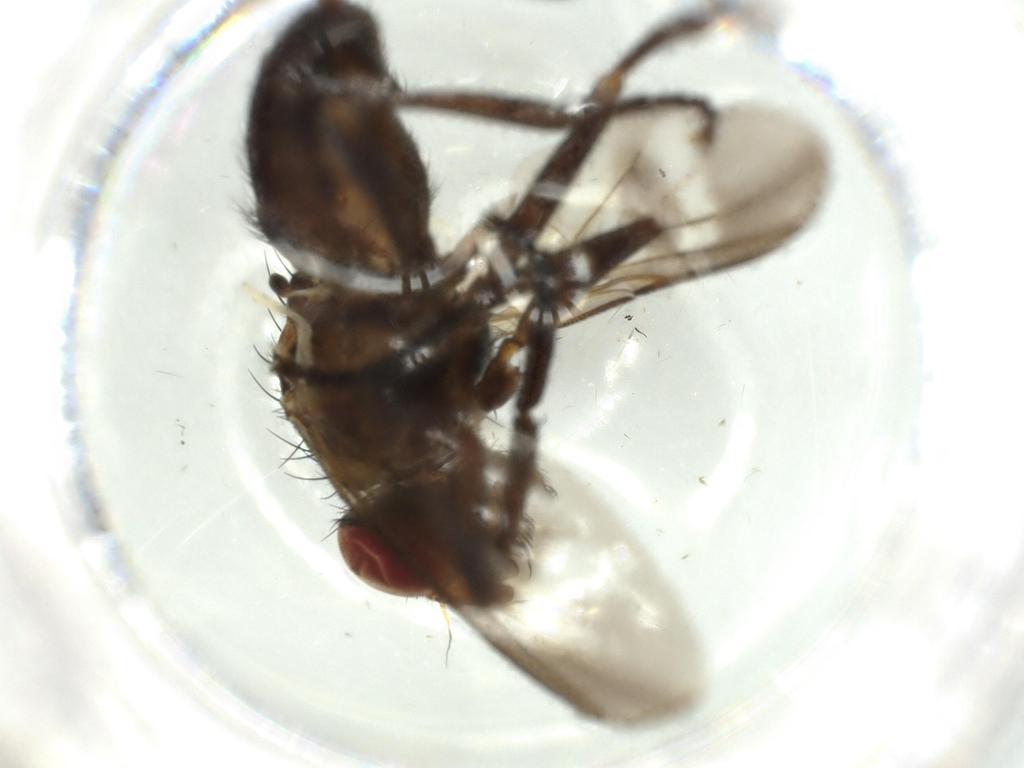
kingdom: Animalia
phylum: Arthropoda
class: Insecta
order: Diptera
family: Calliphoridae
